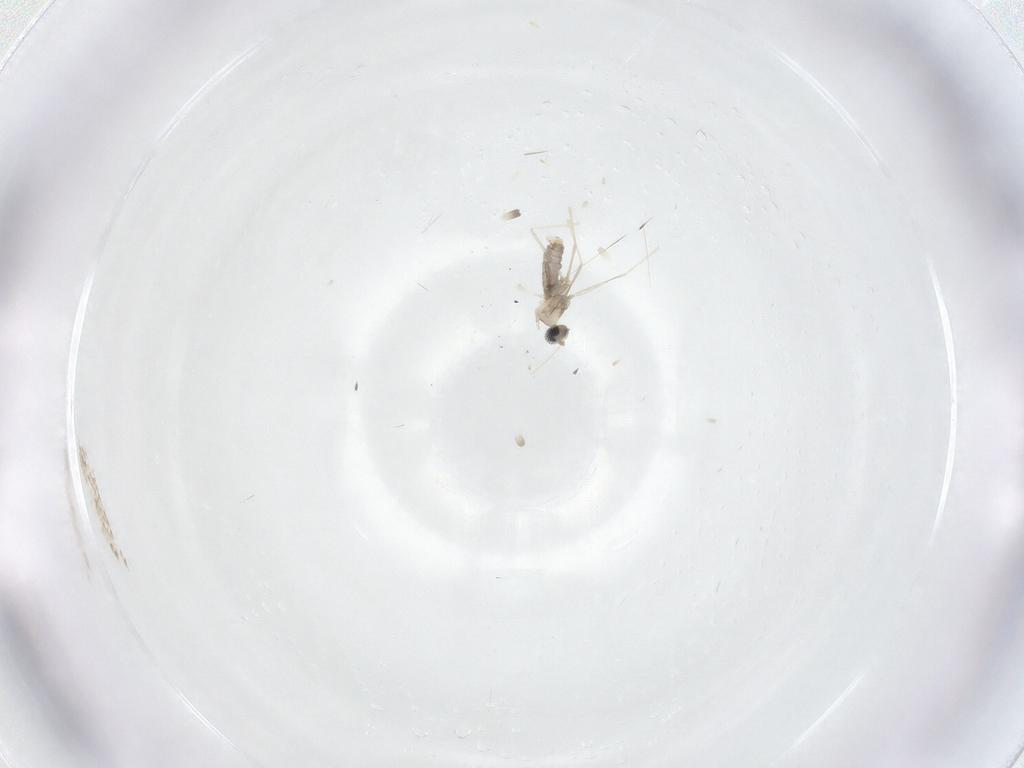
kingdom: Animalia
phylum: Arthropoda
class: Insecta
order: Diptera
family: Cecidomyiidae
